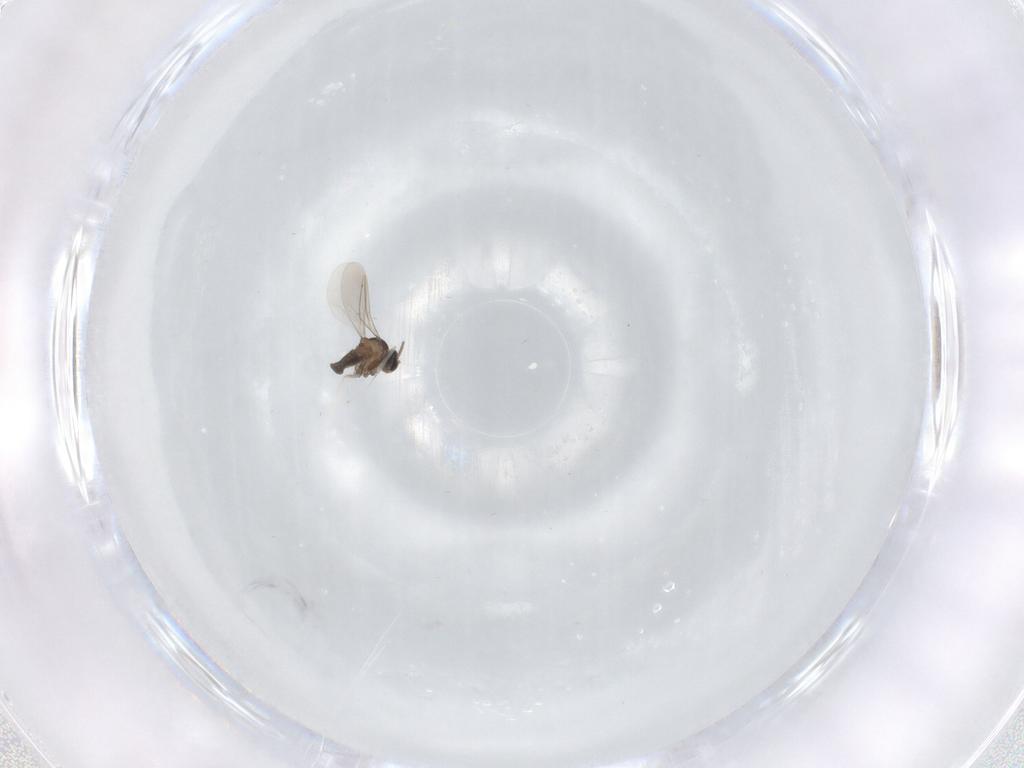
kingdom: Animalia
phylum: Arthropoda
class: Insecta
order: Diptera
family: Cecidomyiidae
